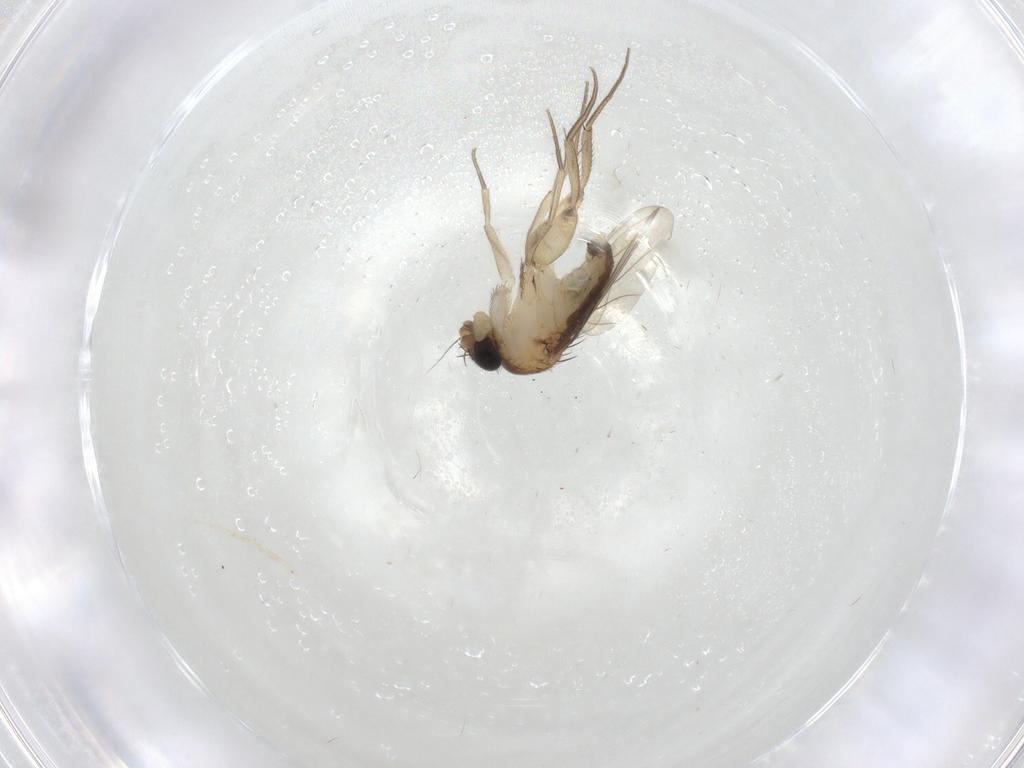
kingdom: Animalia
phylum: Arthropoda
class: Insecta
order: Diptera
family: Phoridae
